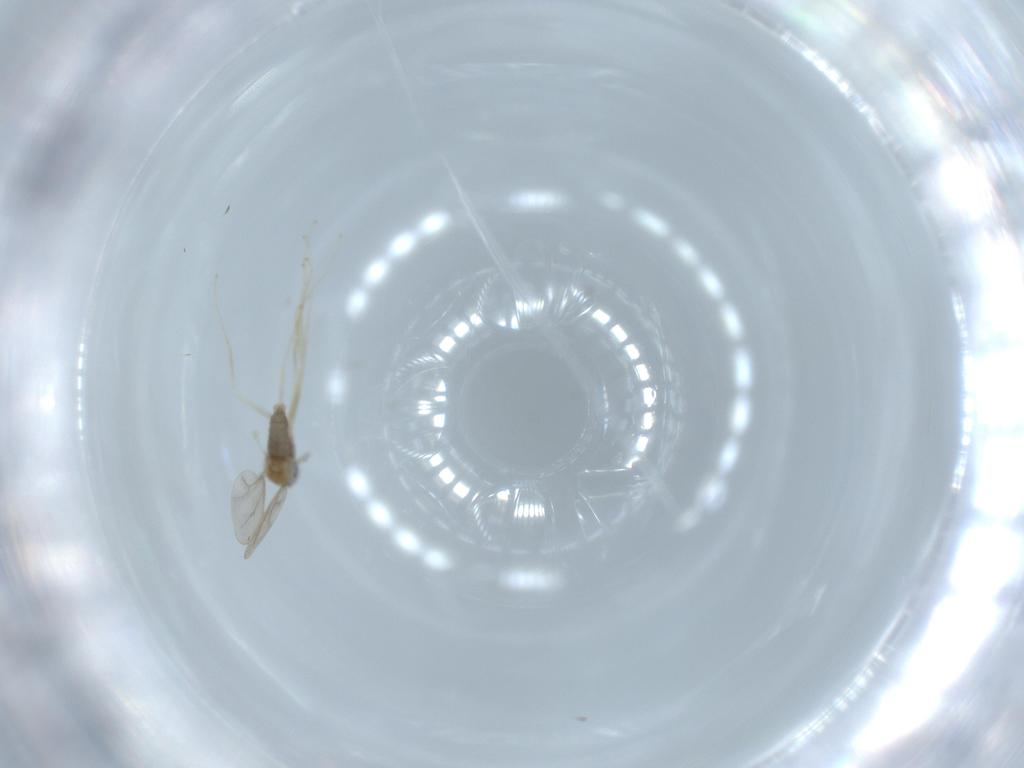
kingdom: Animalia
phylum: Arthropoda
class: Insecta
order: Diptera
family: Cecidomyiidae
